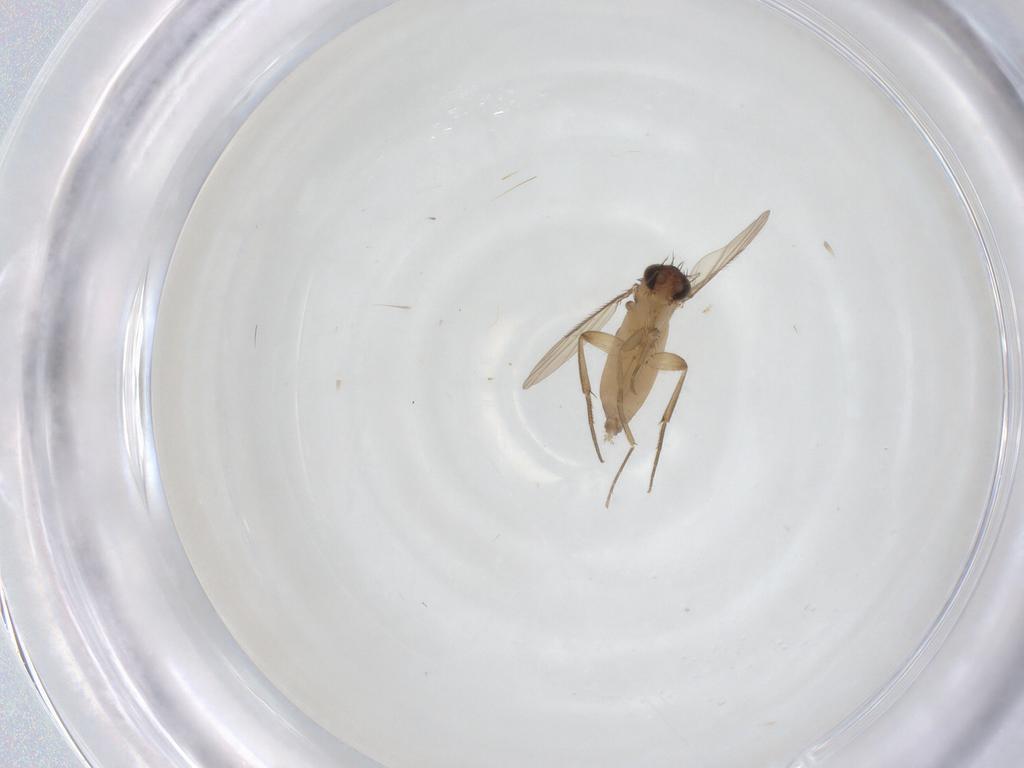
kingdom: Animalia
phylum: Arthropoda
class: Insecta
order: Diptera
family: Phoridae
